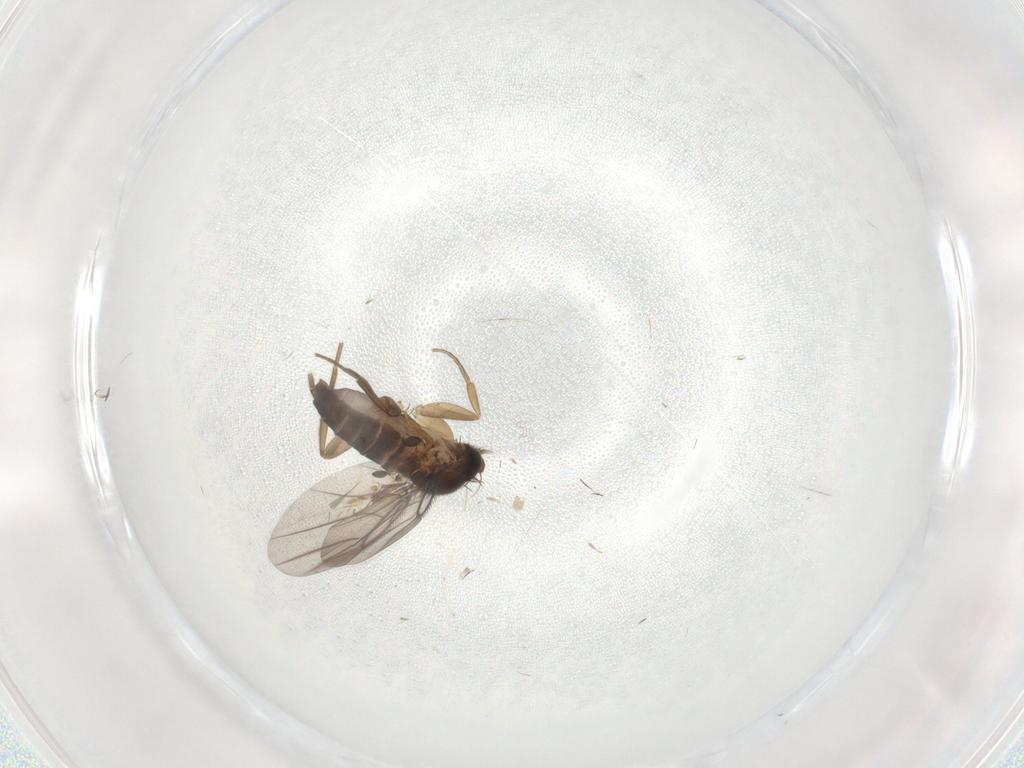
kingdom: Animalia
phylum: Arthropoda
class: Insecta
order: Diptera
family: Cecidomyiidae
